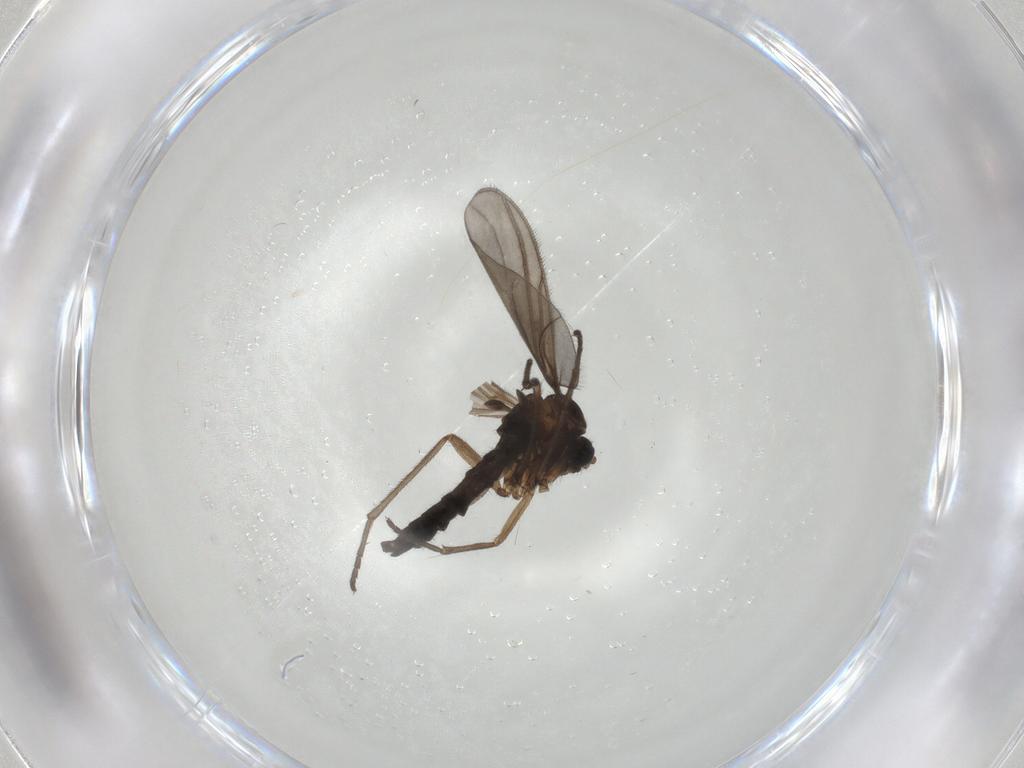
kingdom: Animalia
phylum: Arthropoda
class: Insecta
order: Diptera
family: Sciaridae
